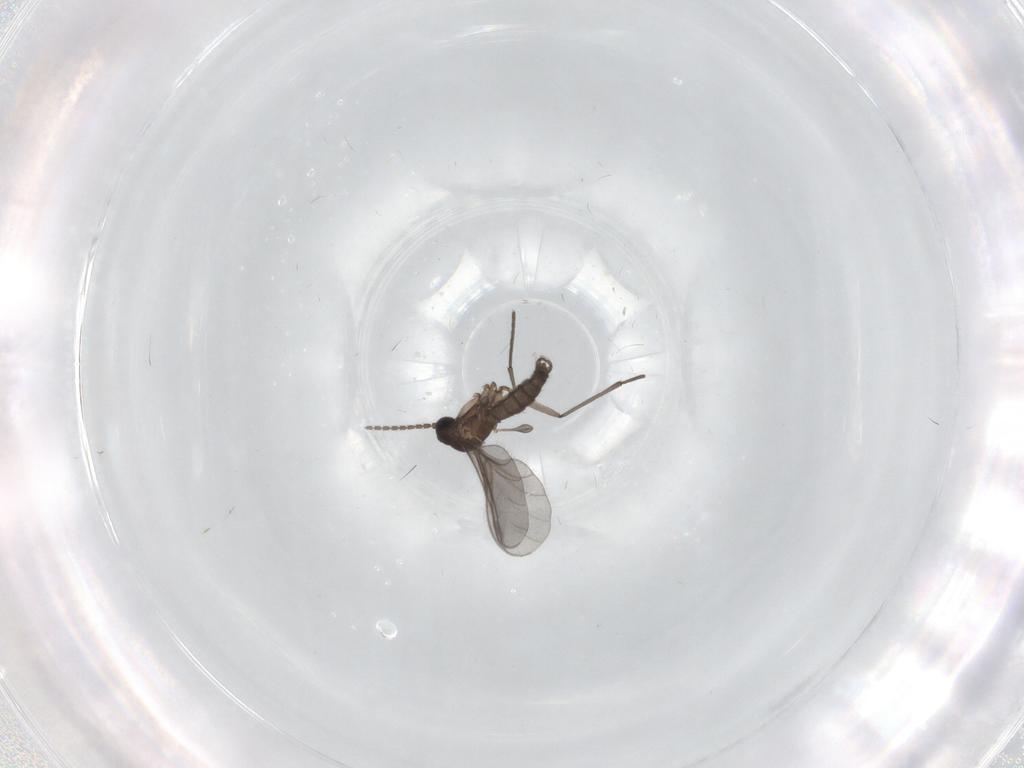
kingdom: Animalia
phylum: Arthropoda
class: Insecta
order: Diptera
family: Chironomidae
